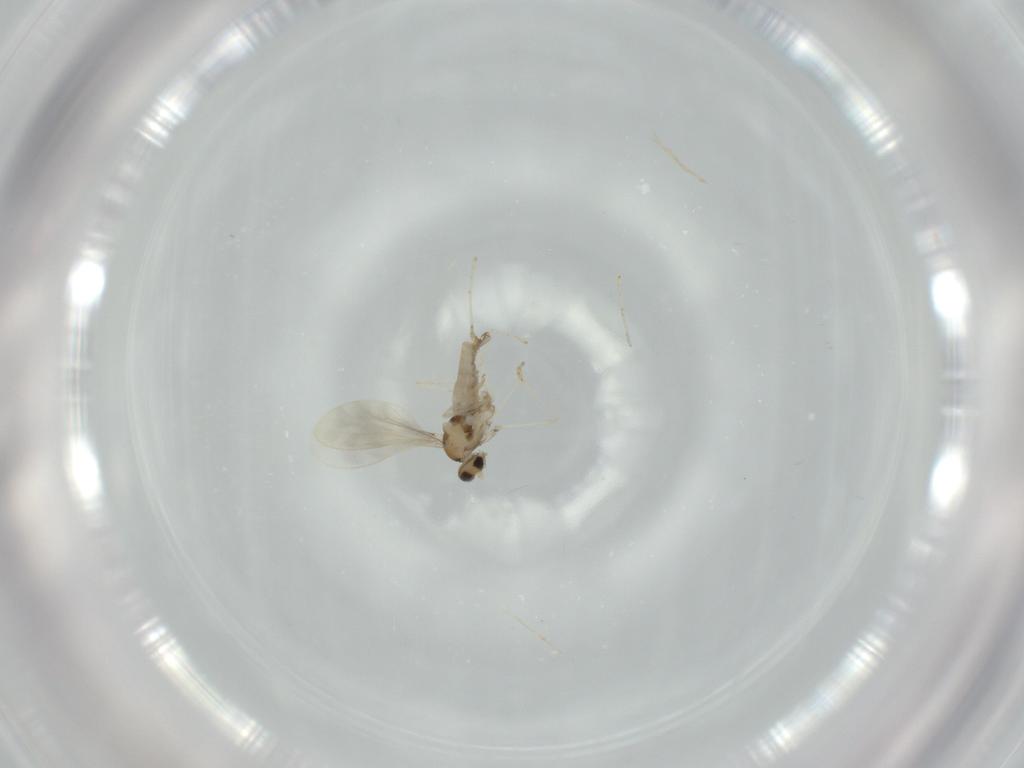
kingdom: Animalia
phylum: Arthropoda
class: Insecta
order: Diptera
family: Cecidomyiidae
